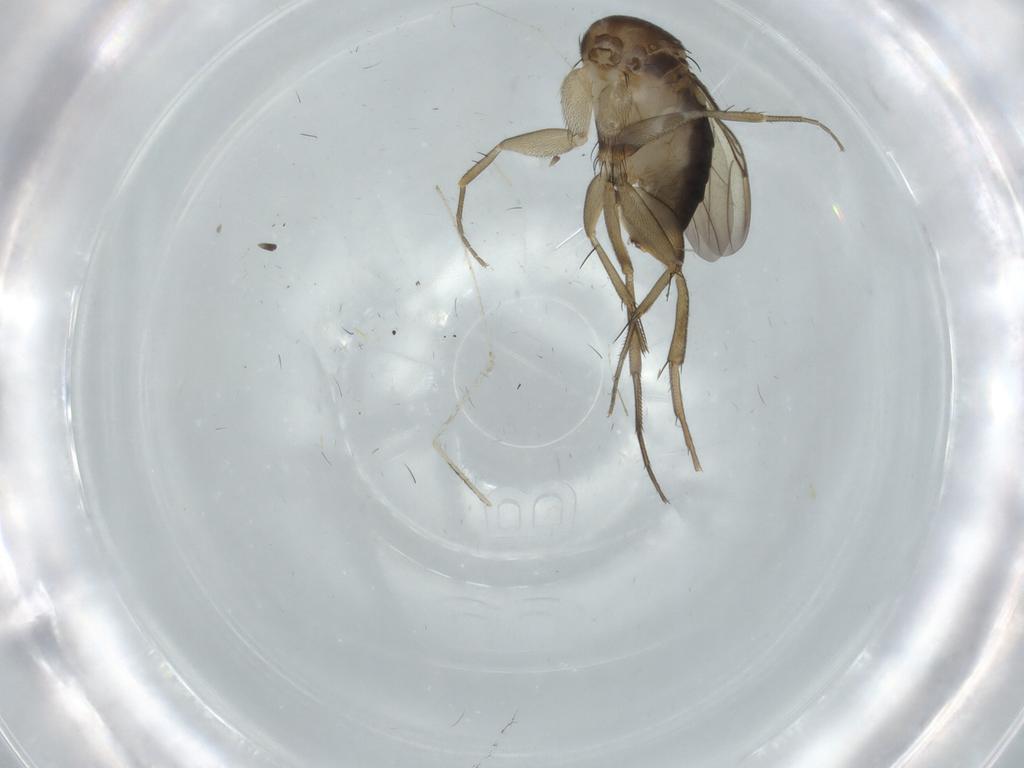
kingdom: Animalia
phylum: Arthropoda
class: Insecta
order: Diptera
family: Phoridae
